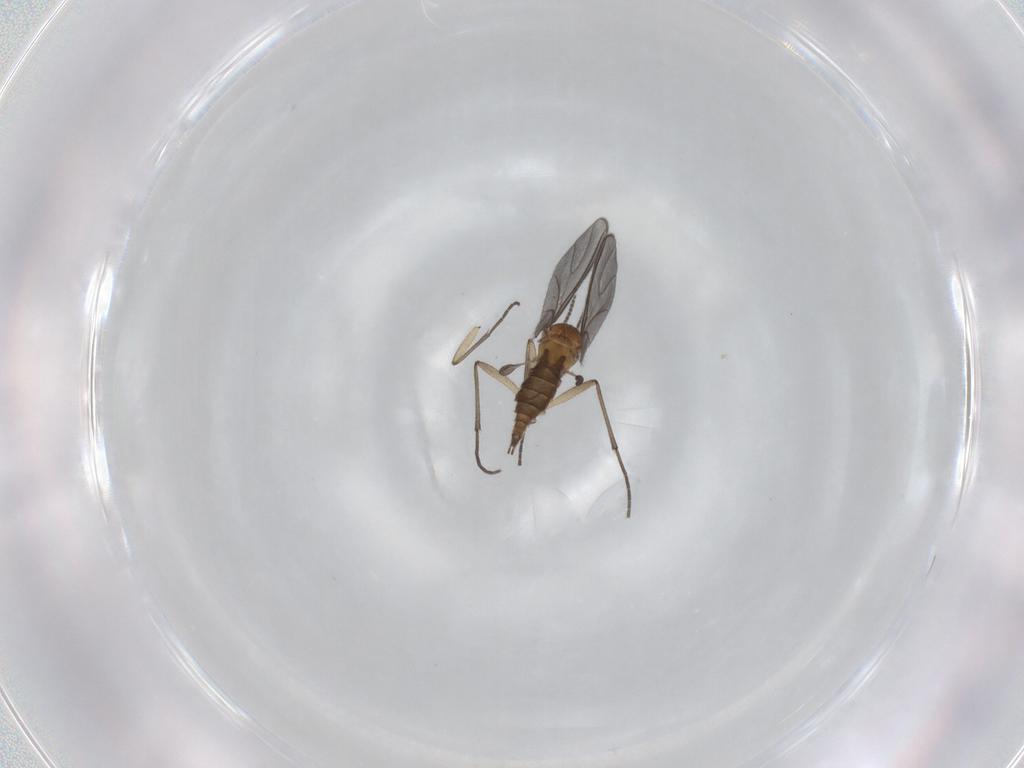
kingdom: Animalia
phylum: Arthropoda
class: Insecta
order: Diptera
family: Sciaridae
